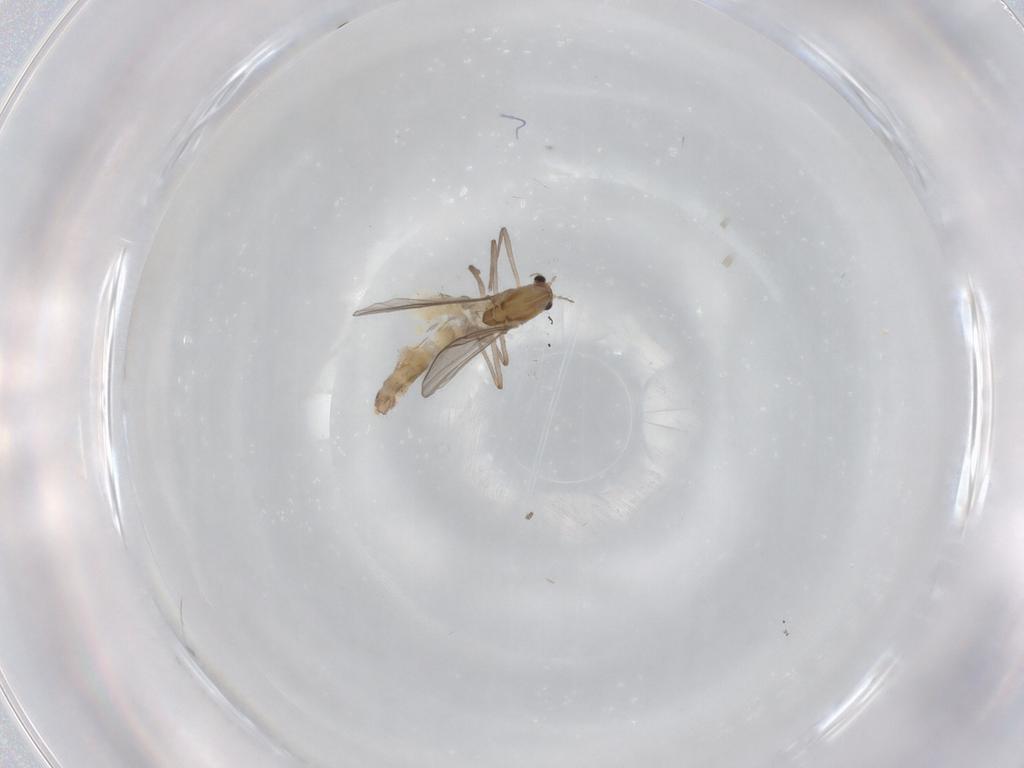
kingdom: Animalia
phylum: Arthropoda
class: Insecta
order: Diptera
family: Chironomidae
